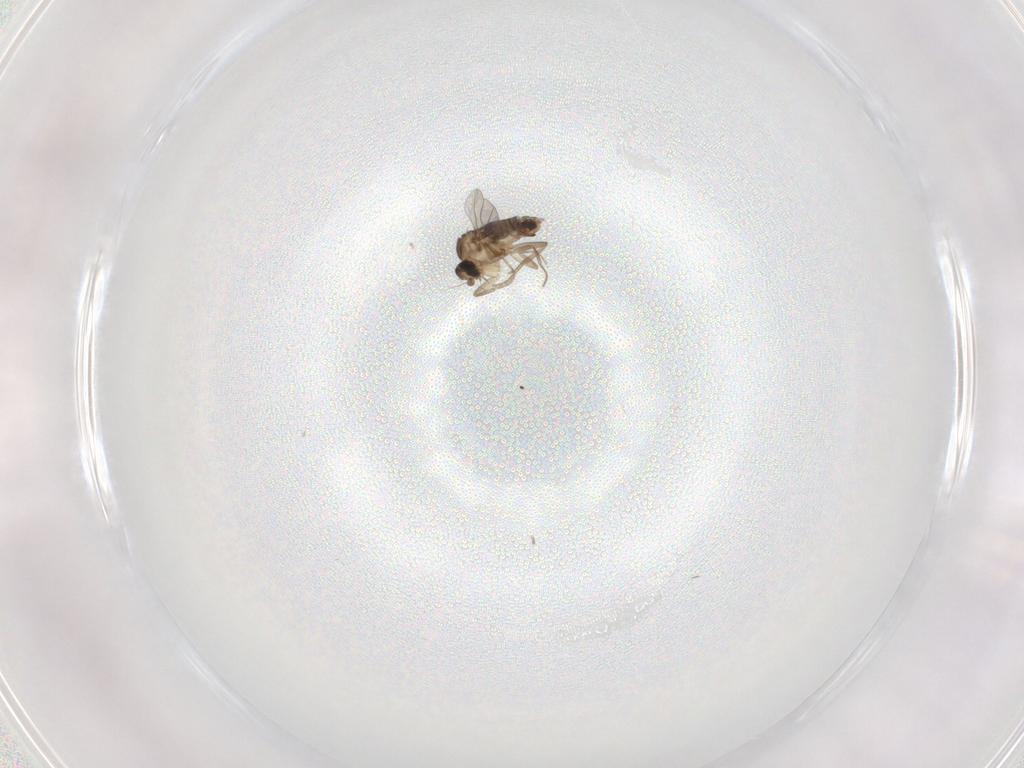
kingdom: Animalia
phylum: Arthropoda
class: Insecta
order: Diptera
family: Phoridae
